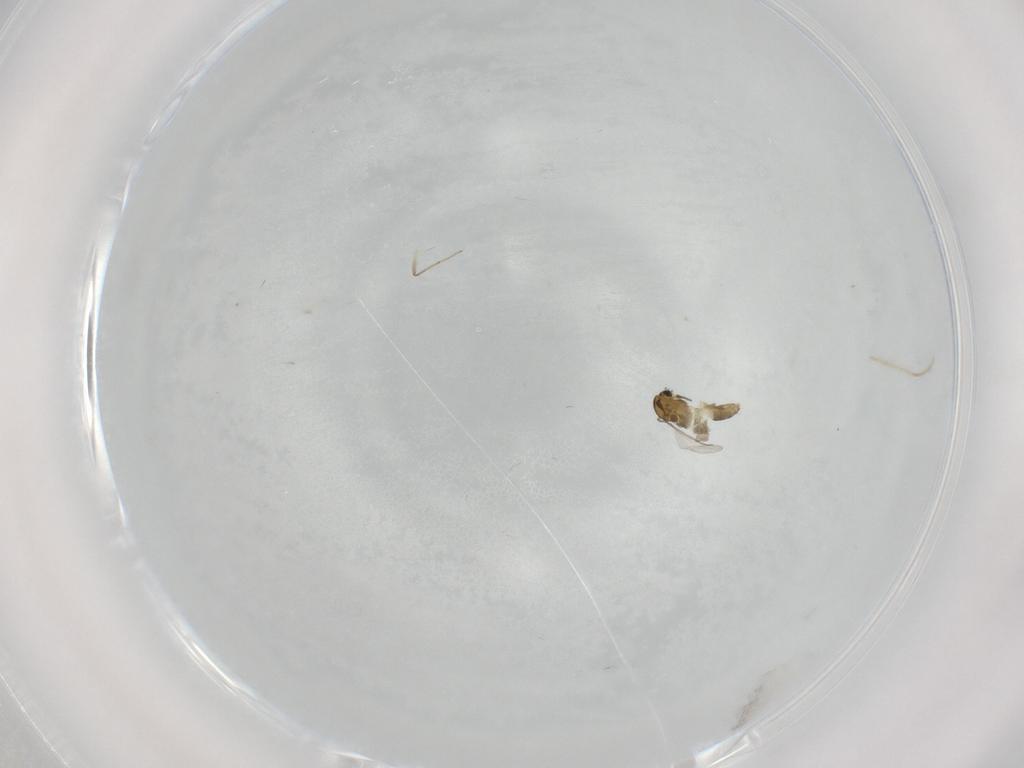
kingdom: Animalia
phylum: Arthropoda
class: Insecta
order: Diptera
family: Chironomidae
